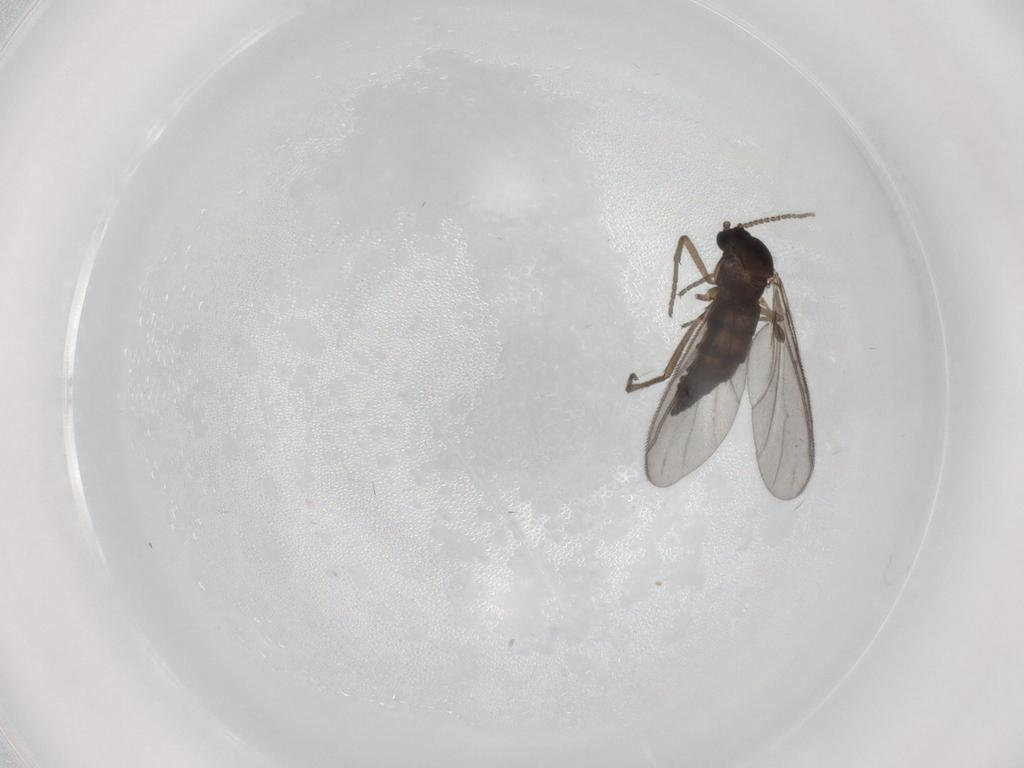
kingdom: Animalia
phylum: Arthropoda
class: Insecta
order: Diptera
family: Sciaridae
